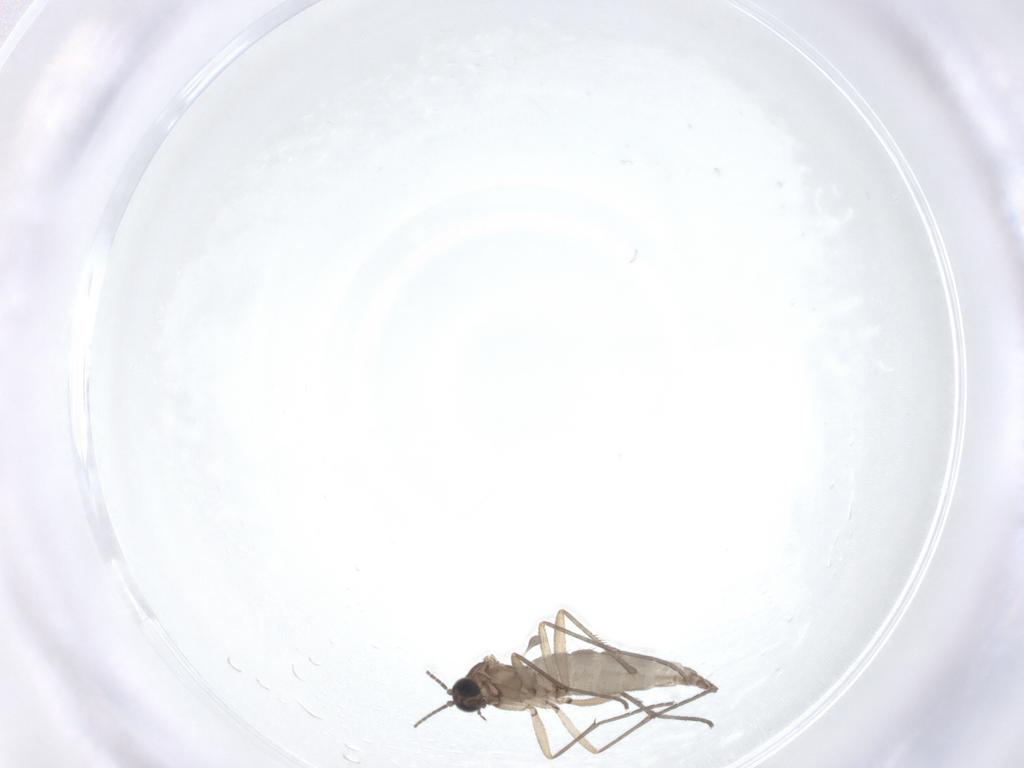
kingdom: Animalia
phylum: Arthropoda
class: Insecta
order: Diptera
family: Sciaridae
